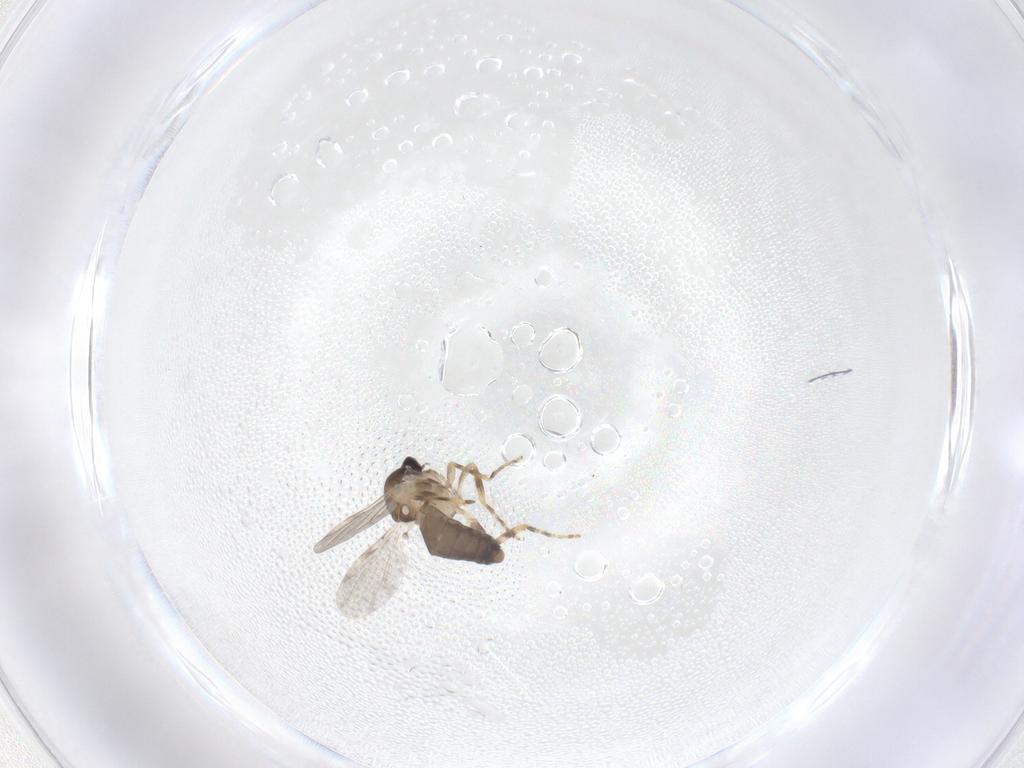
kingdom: Animalia
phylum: Arthropoda
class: Insecta
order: Diptera
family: Ceratopogonidae
